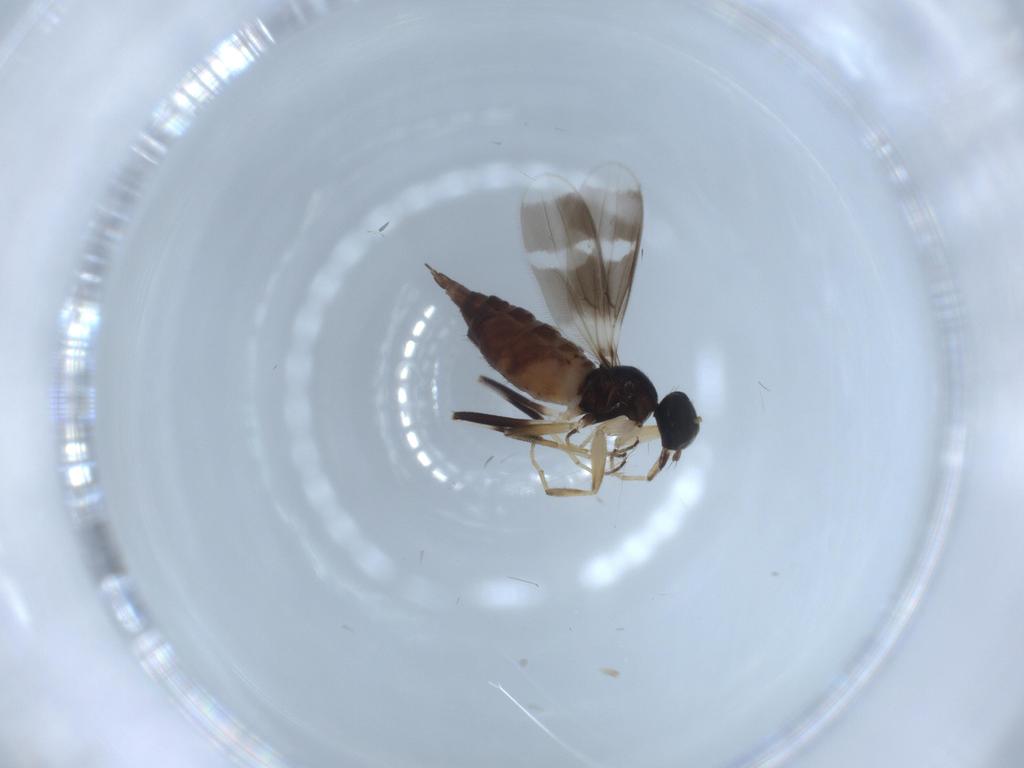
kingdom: Animalia
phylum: Arthropoda
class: Insecta
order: Diptera
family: Hybotidae
